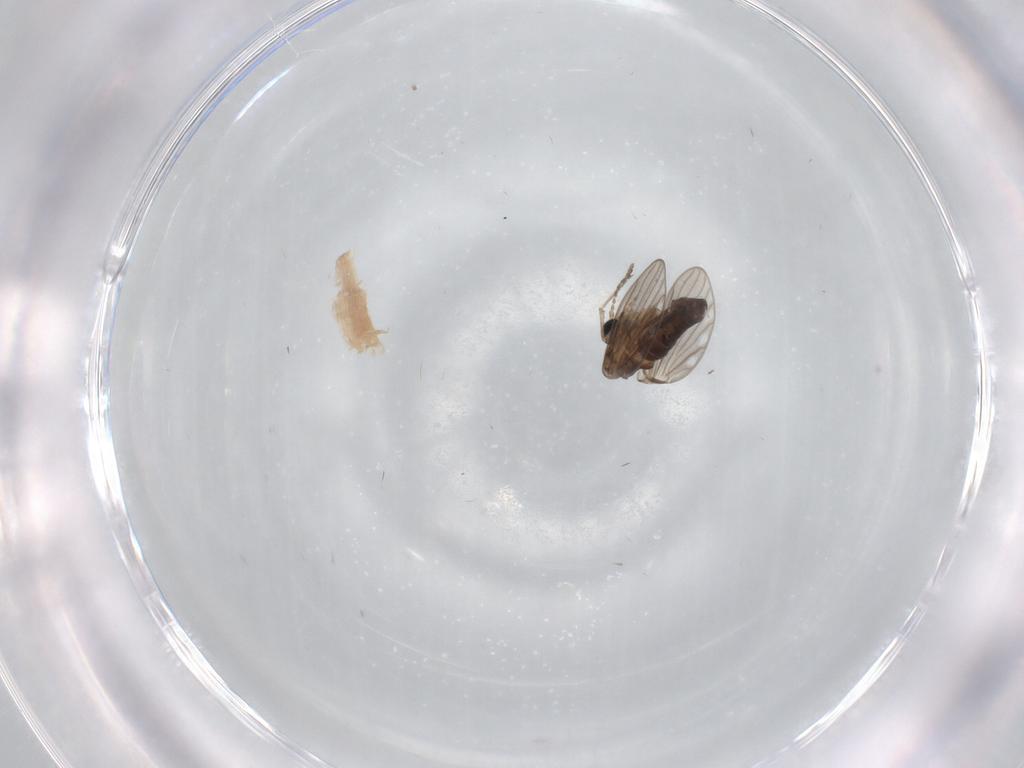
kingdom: Animalia
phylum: Arthropoda
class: Insecta
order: Diptera
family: Psychodidae
